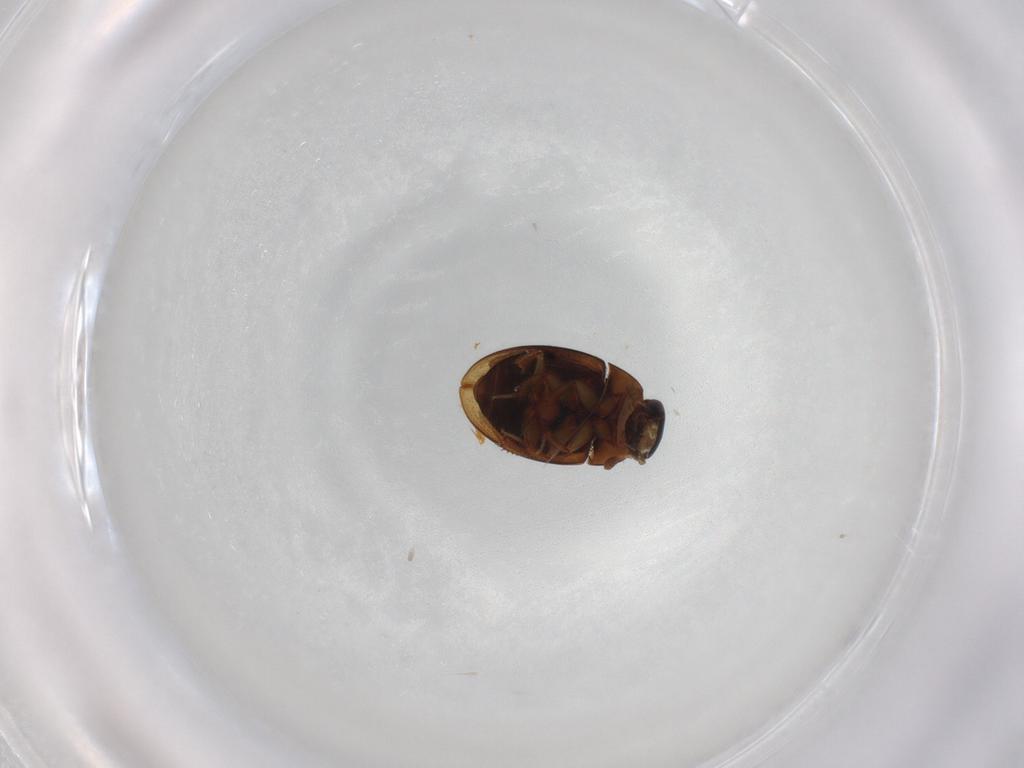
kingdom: Animalia
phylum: Arthropoda
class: Insecta
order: Coleoptera
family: Hydrophilidae
